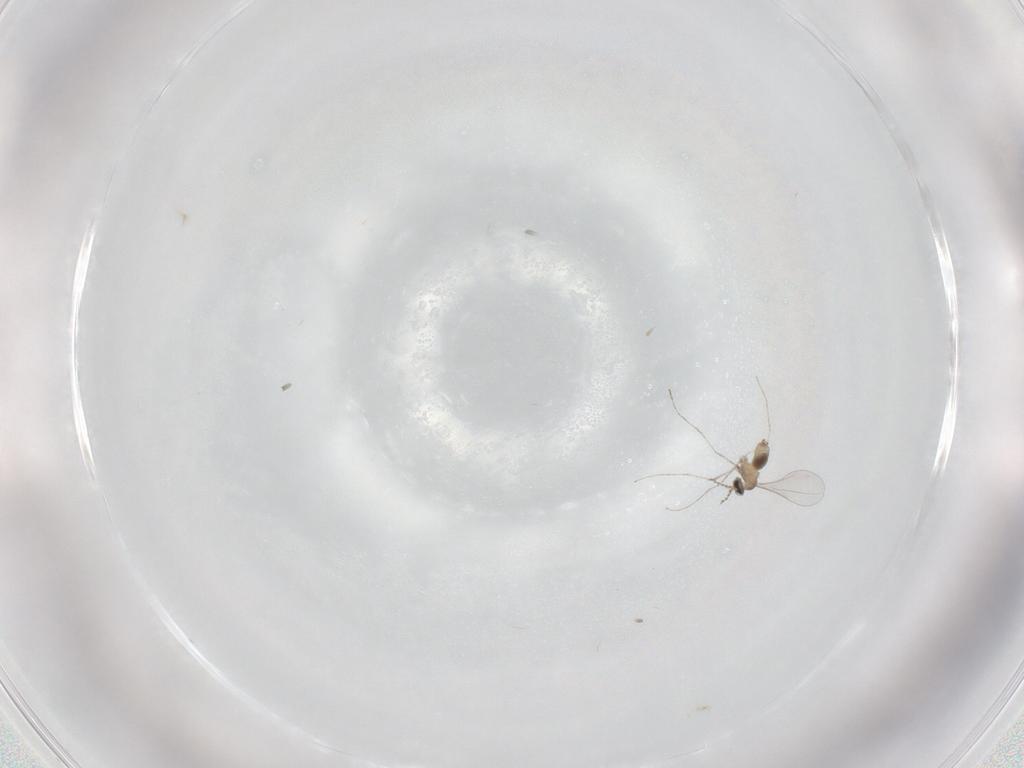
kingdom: Animalia
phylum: Arthropoda
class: Insecta
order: Diptera
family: Cecidomyiidae
